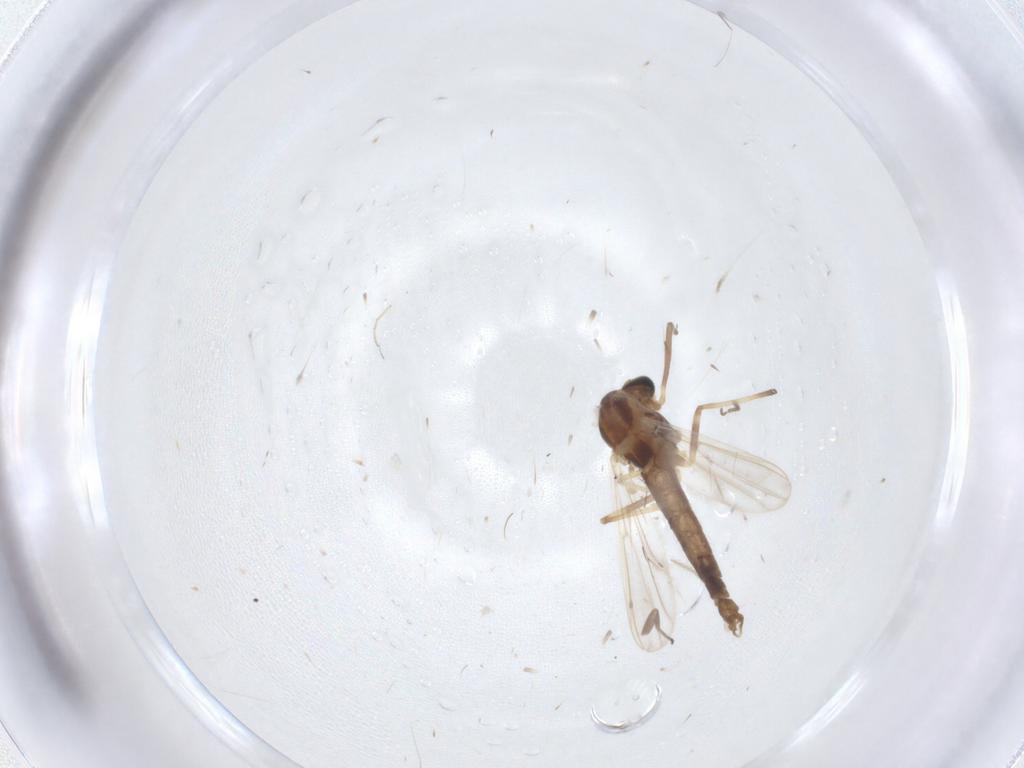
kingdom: Animalia
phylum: Arthropoda
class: Insecta
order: Diptera
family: Chironomidae
